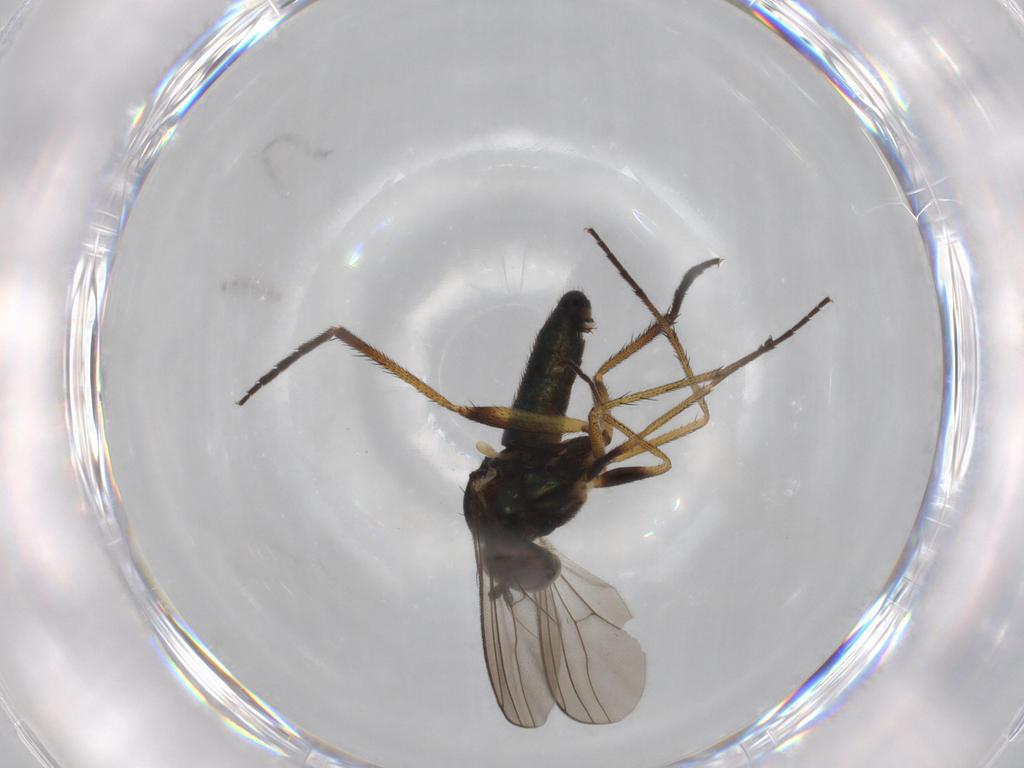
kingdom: Animalia
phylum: Arthropoda
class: Insecta
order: Diptera
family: Dolichopodidae
